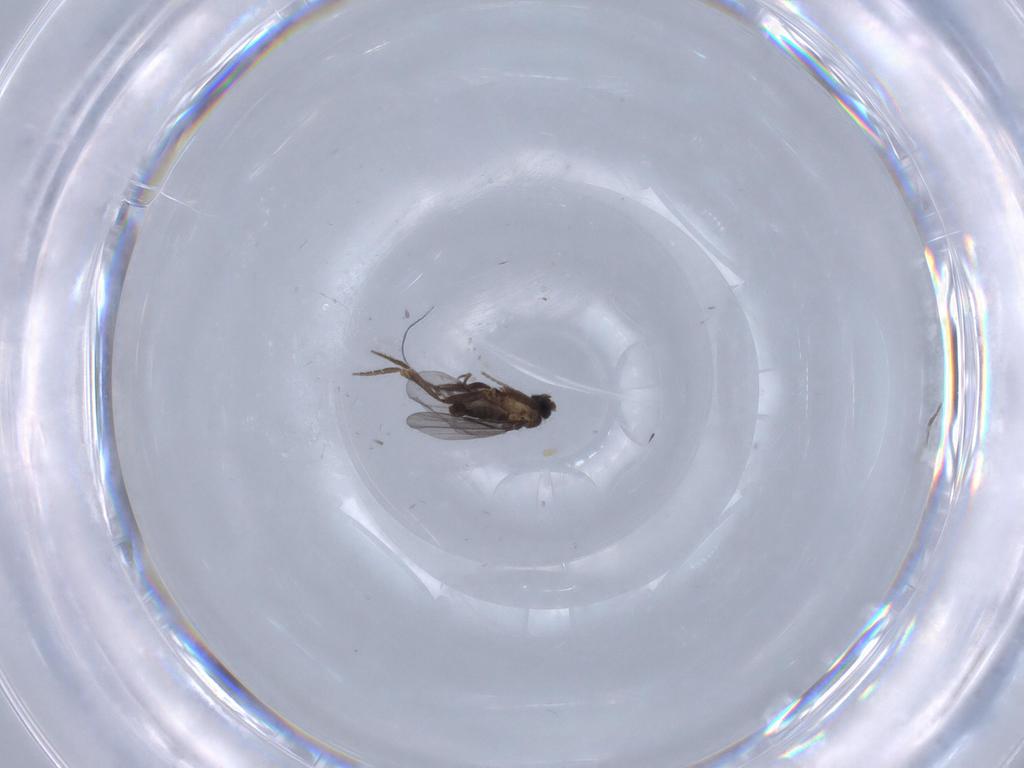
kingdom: Animalia
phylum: Arthropoda
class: Insecta
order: Diptera
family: Phoridae
